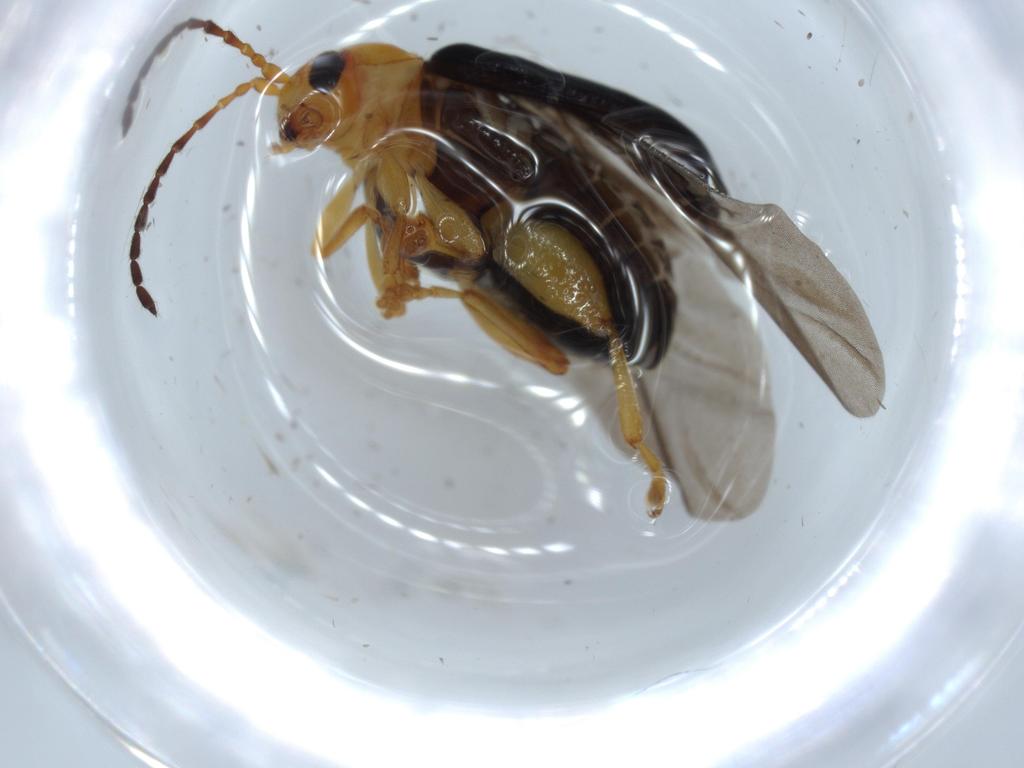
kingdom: Animalia
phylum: Arthropoda
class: Insecta
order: Coleoptera
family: Chrysomelidae
